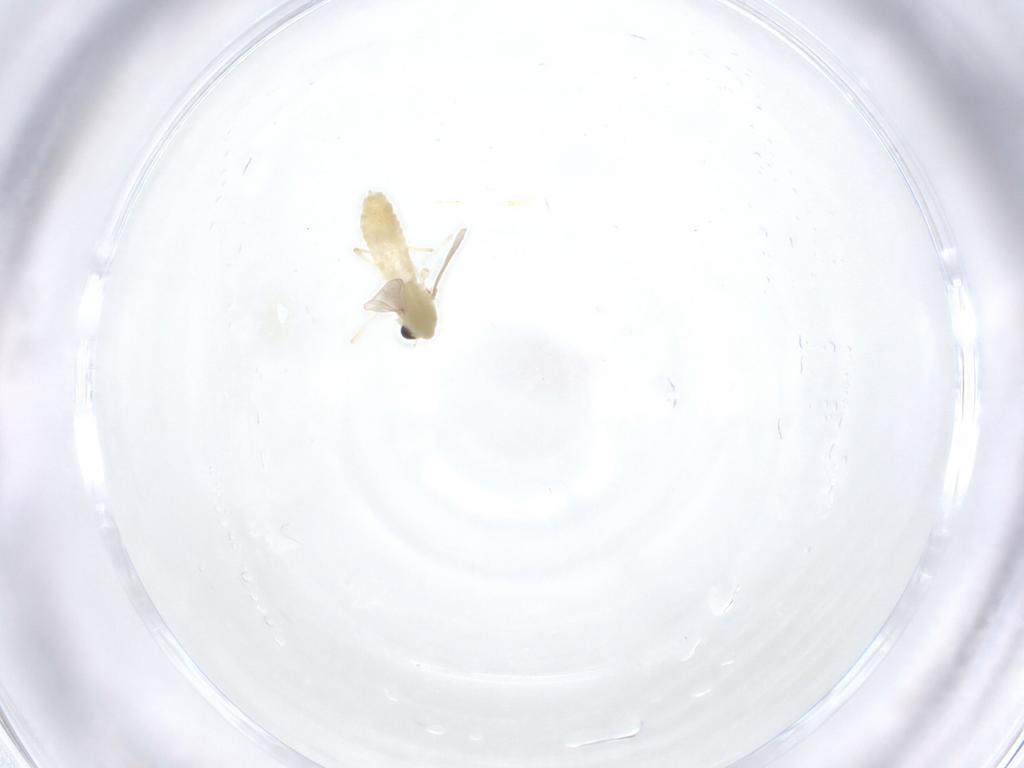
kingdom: Animalia
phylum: Arthropoda
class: Insecta
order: Diptera
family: Chironomidae
